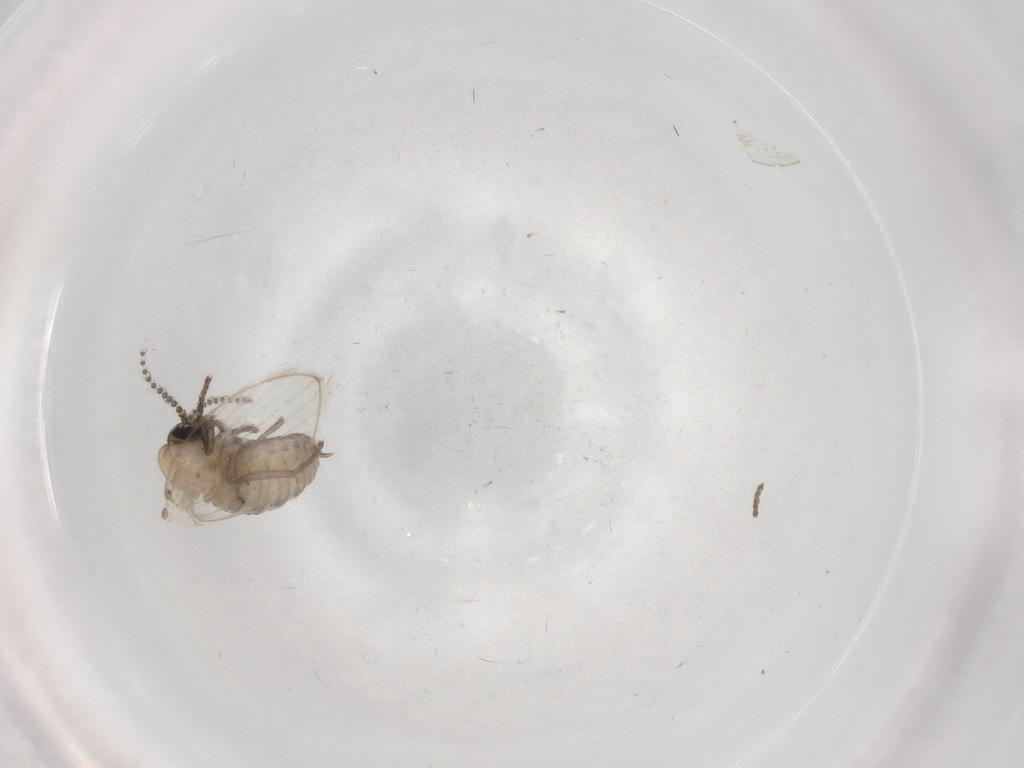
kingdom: Animalia
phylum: Arthropoda
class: Insecta
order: Diptera
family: Psychodidae
